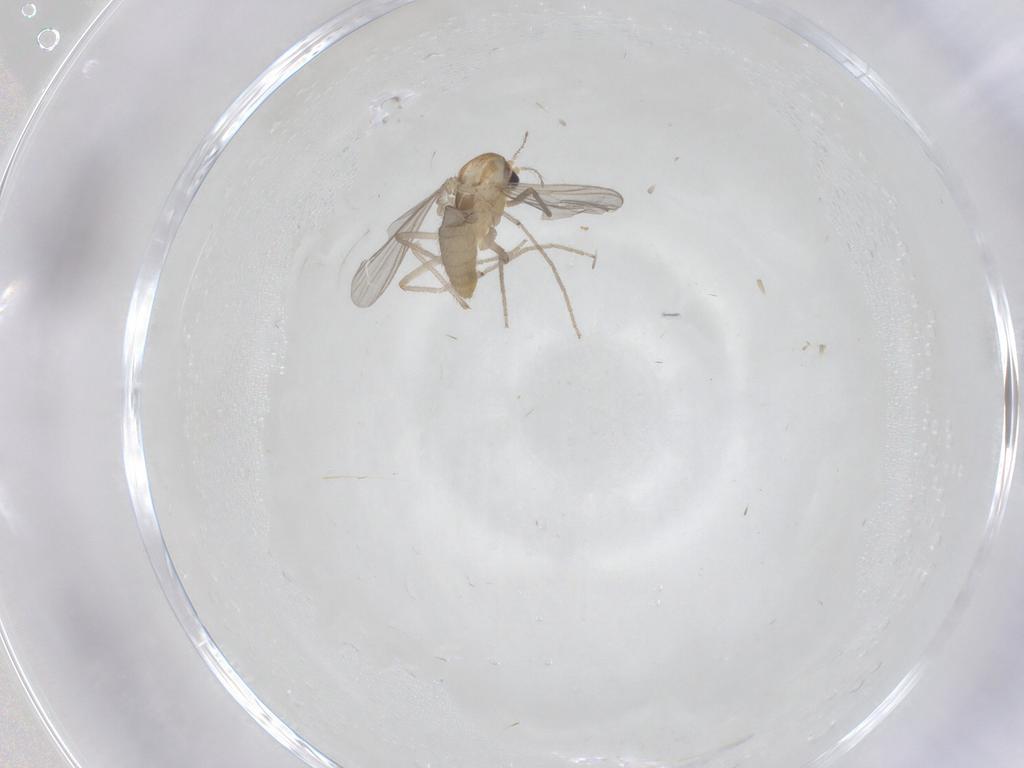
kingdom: Animalia
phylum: Arthropoda
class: Insecta
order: Diptera
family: Chironomidae
